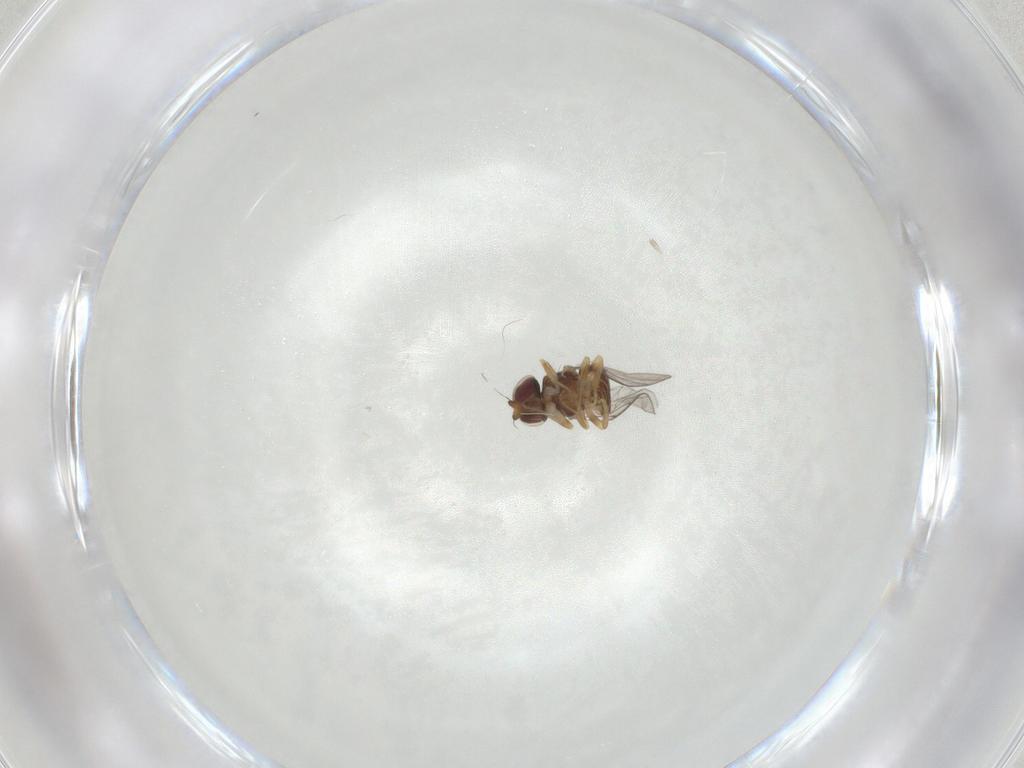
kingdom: Animalia
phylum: Arthropoda
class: Insecta
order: Diptera
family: Chloropidae
